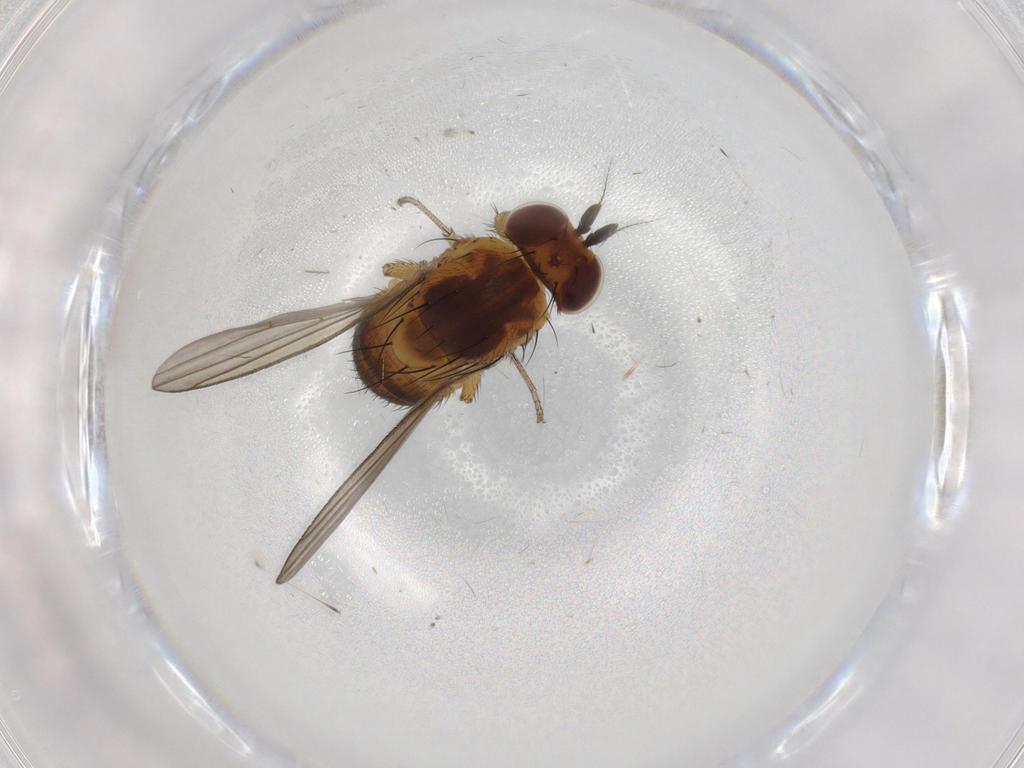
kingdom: Animalia
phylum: Arthropoda
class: Insecta
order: Diptera
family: Lauxaniidae
